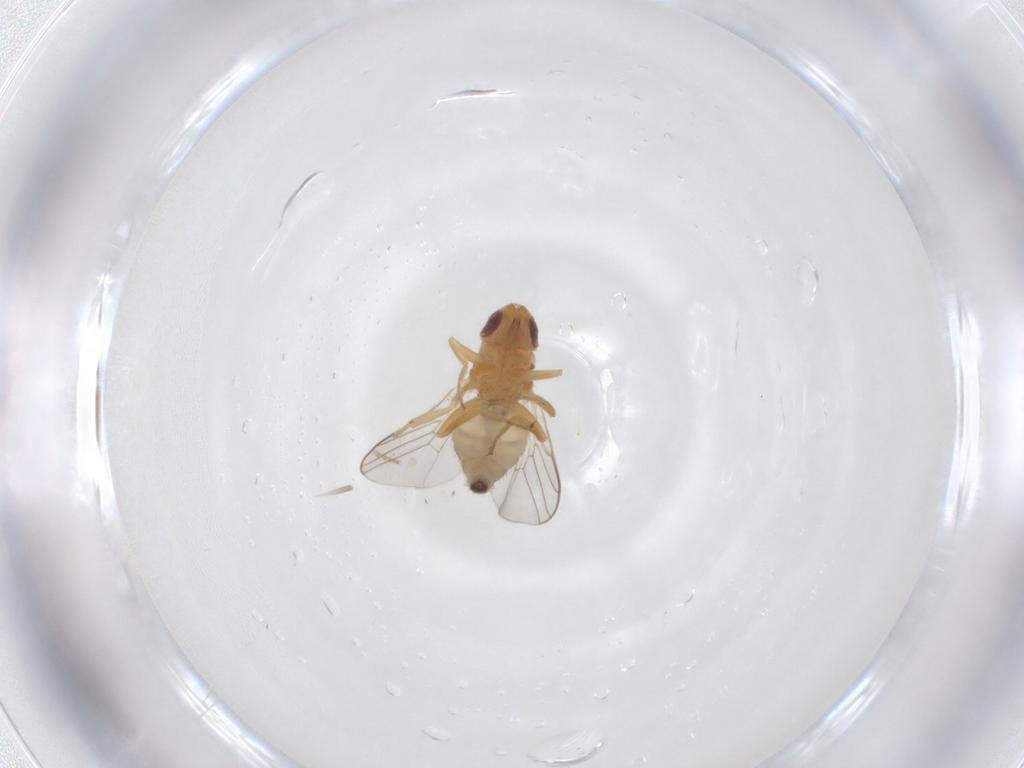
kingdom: Animalia
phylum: Arthropoda
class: Insecta
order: Diptera
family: Chloropidae
